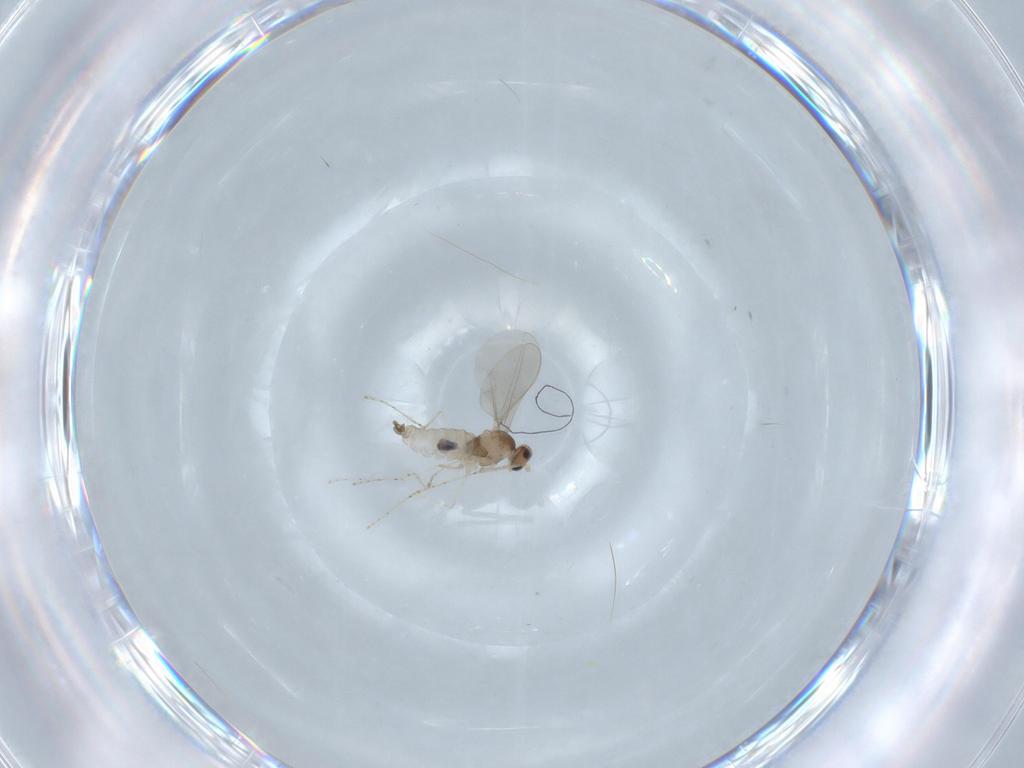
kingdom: Animalia
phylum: Arthropoda
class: Insecta
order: Diptera
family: Cecidomyiidae
